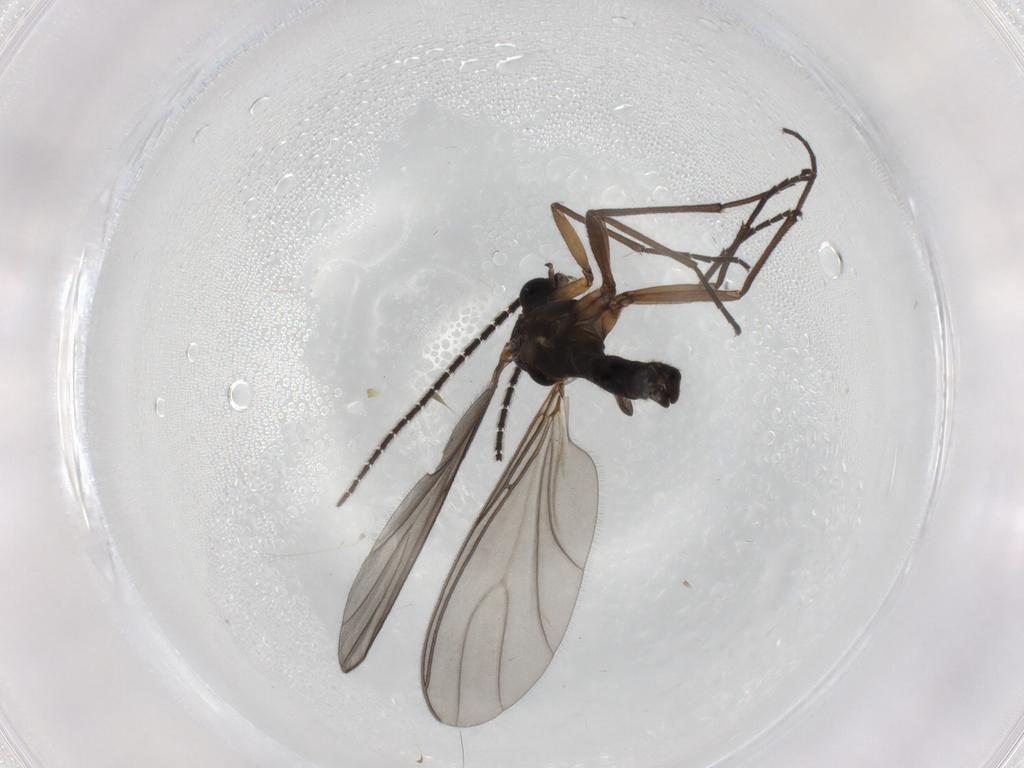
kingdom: Animalia
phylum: Arthropoda
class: Insecta
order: Diptera
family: Sciaridae
